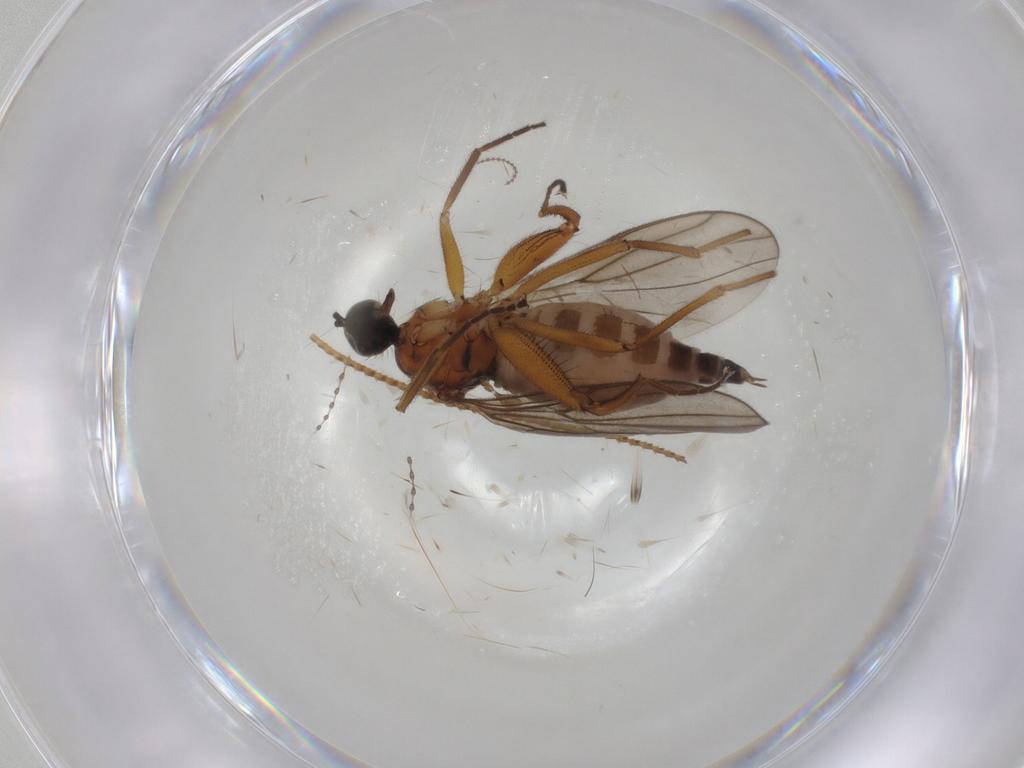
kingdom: Animalia
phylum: Arthropoda
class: Insecta
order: Diptera
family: Hybotidae
